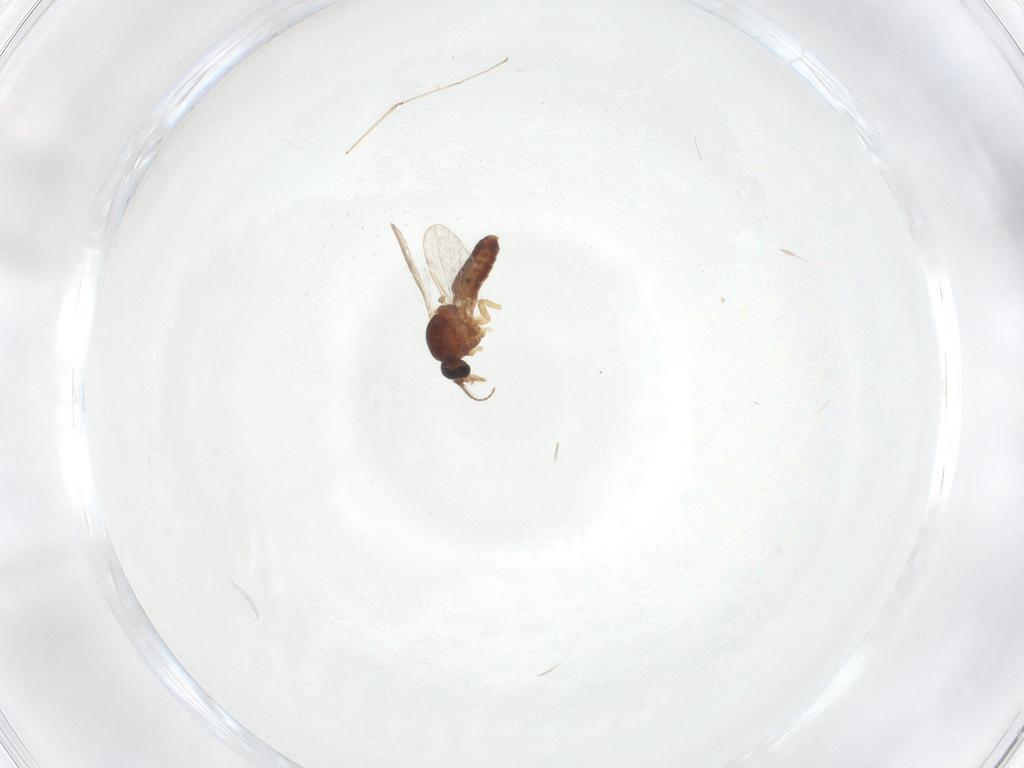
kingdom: Animalia
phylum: Arthropoda
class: Insecta
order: Diptera
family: Ceratopogonidae
